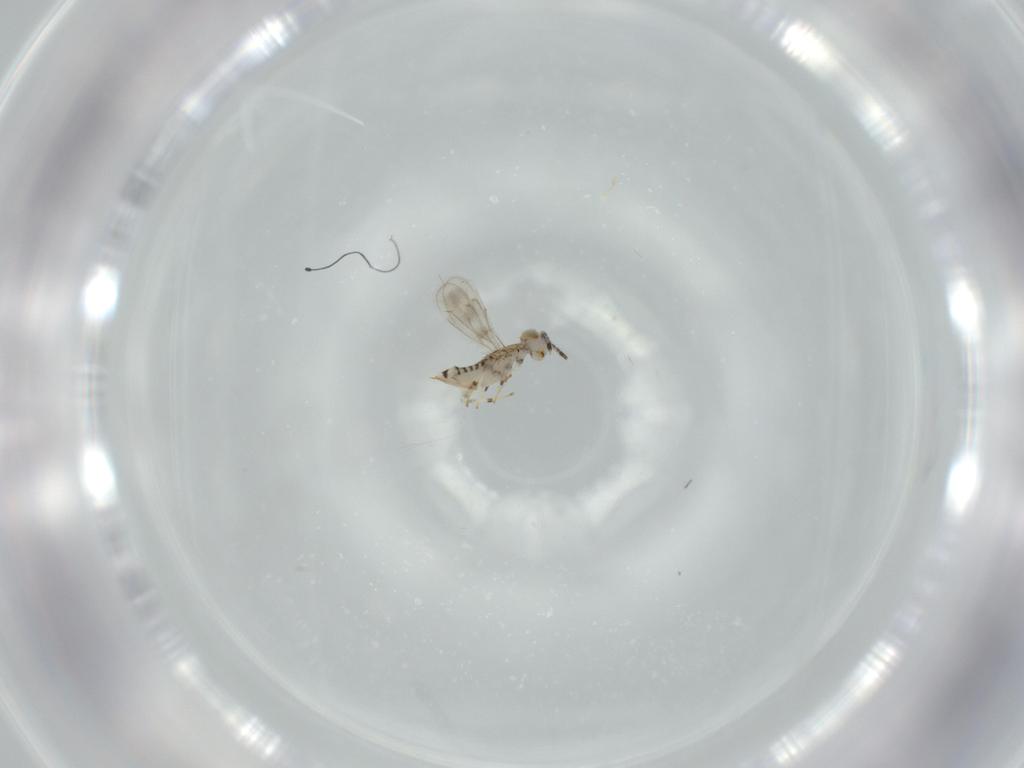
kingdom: Animalia
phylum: Arthropoda
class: Insecta
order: Hymenoptera
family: Aphelinidae
